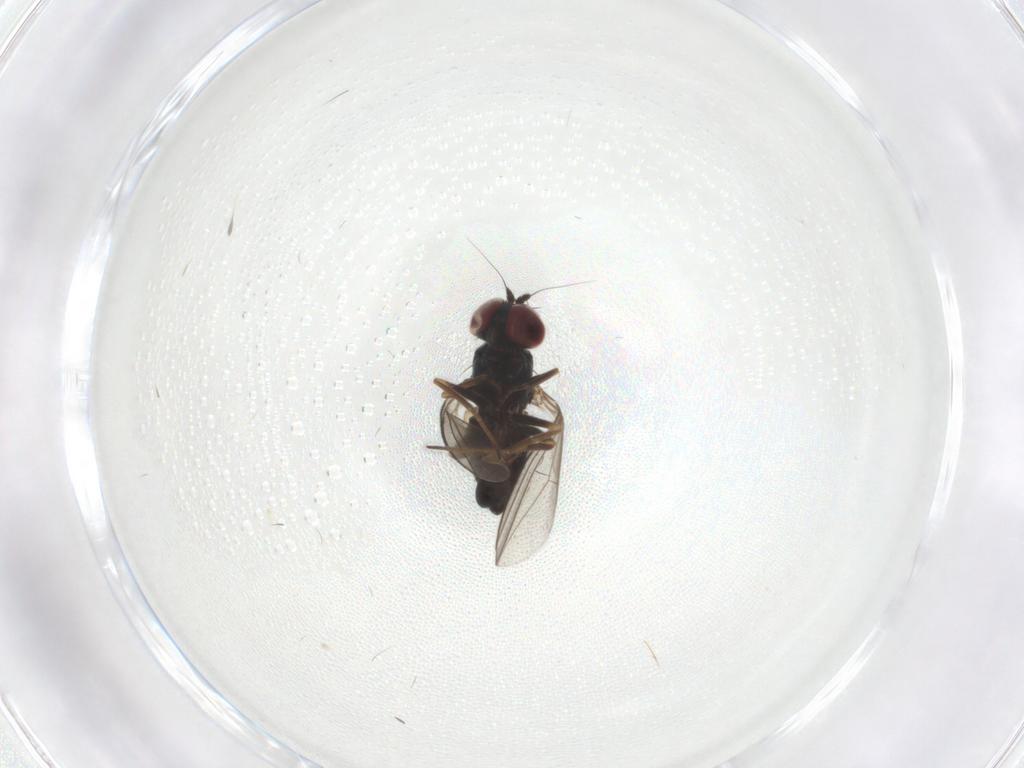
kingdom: Animalia
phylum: Arthropoda
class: Insecta
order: Diptera
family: Dolichopodidae
